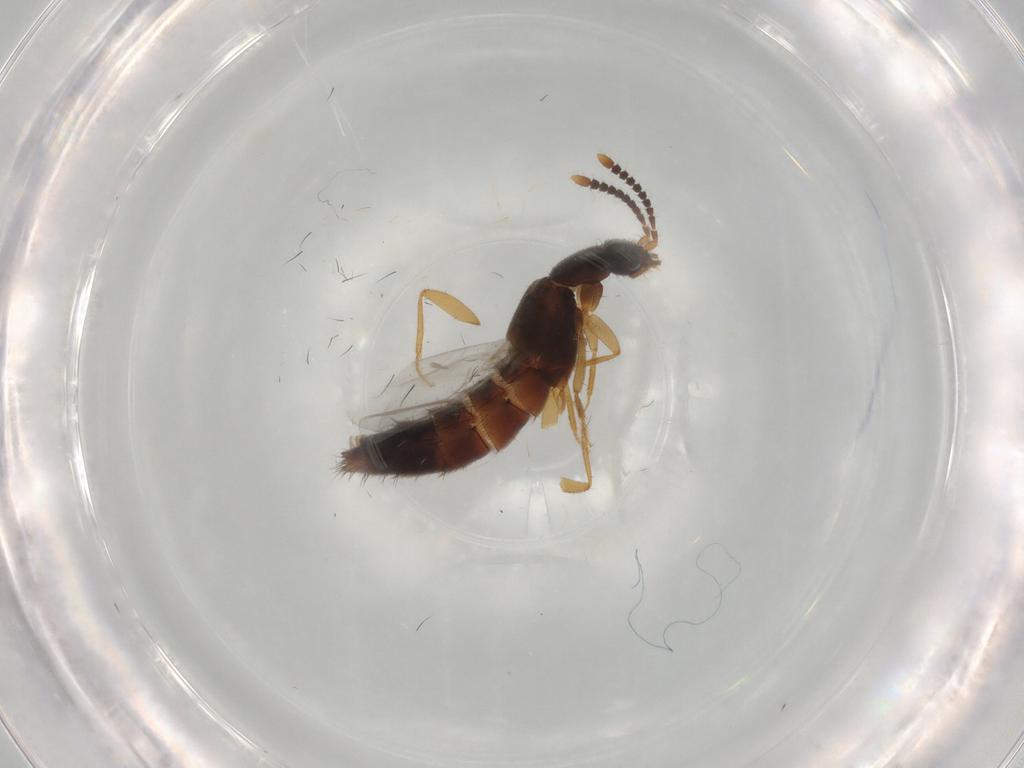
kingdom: Animalia
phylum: Arthropoda
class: Insecta
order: Coleoptera
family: Staphylinidae
